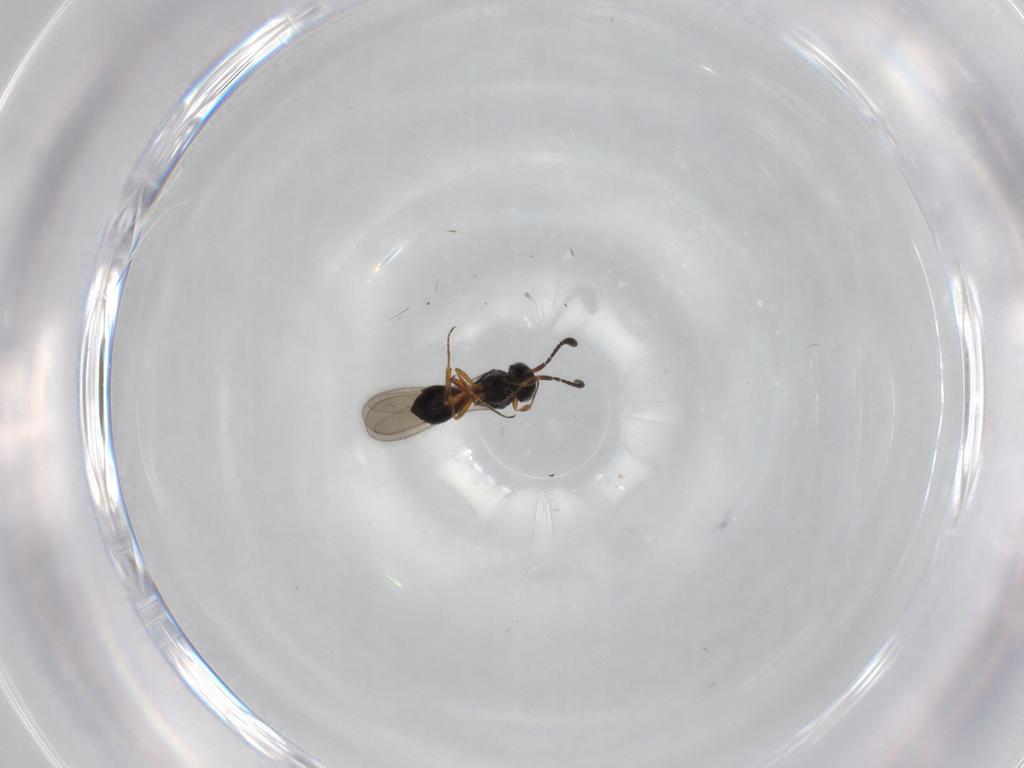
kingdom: Animalia
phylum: Arthropoda
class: Insecta
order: Hymenoptera
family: Scelionidae
